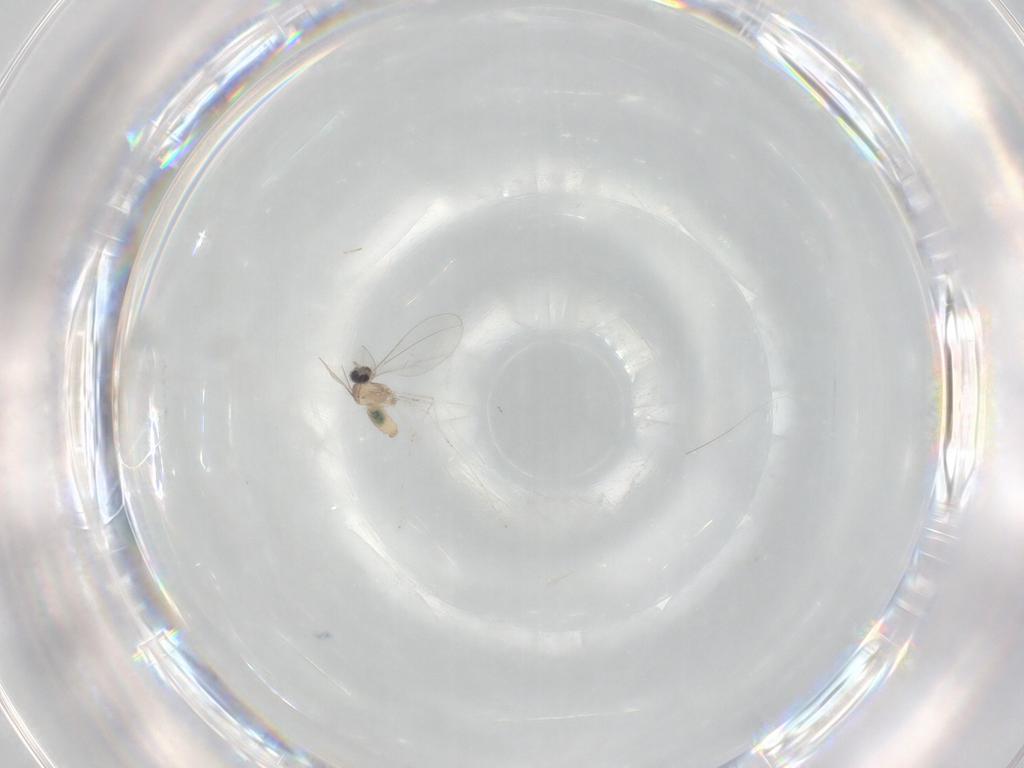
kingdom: Animalia
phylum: Arthropoda
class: Insecta
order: Diptera
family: Cecidomyiidae
